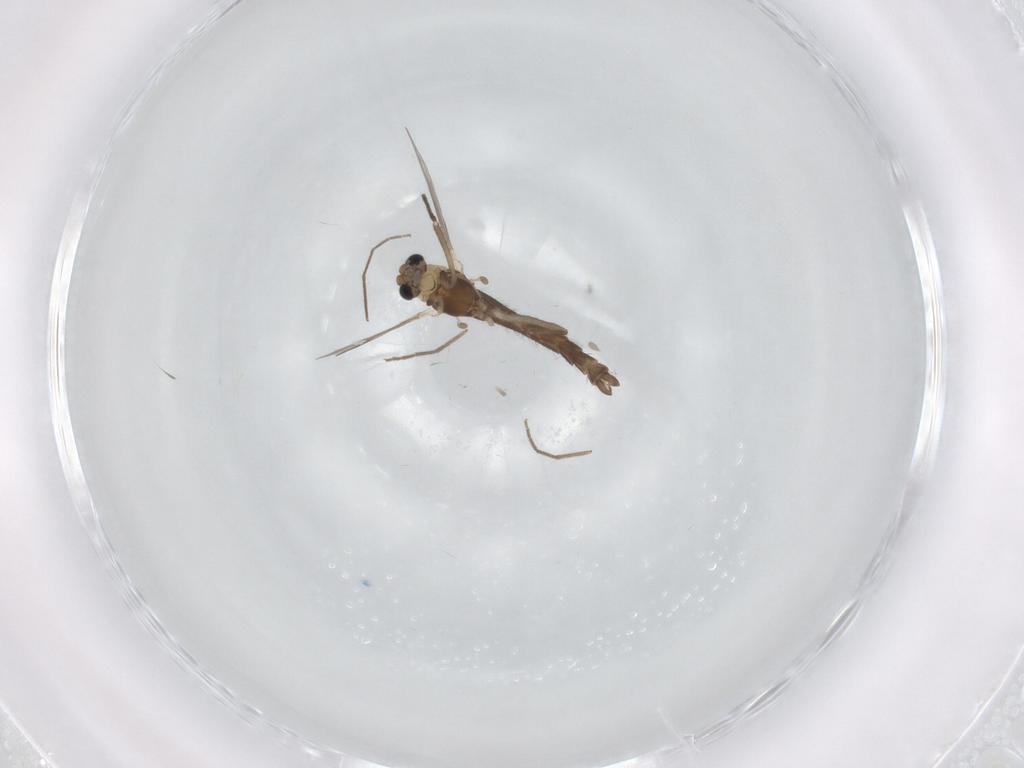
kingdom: Animalia
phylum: Arthropoda
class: Insecta
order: Diptera
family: Chironomidae
